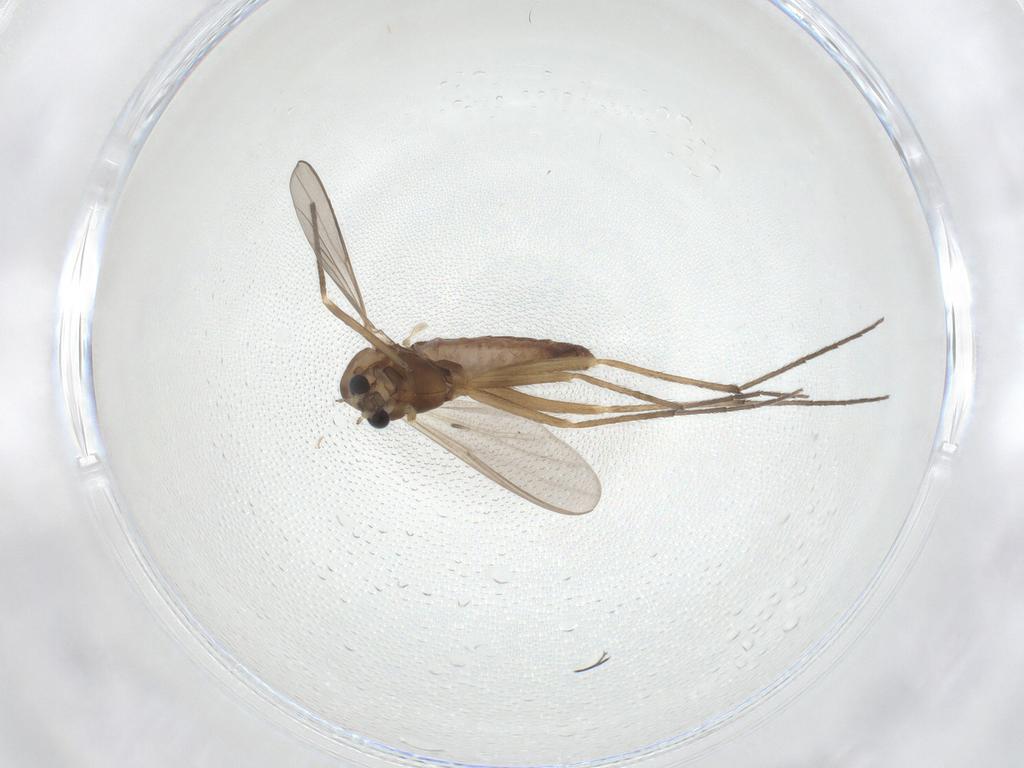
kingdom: Animalia
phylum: Arthropoda
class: Insecta
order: Diptera
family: Chironomidae
